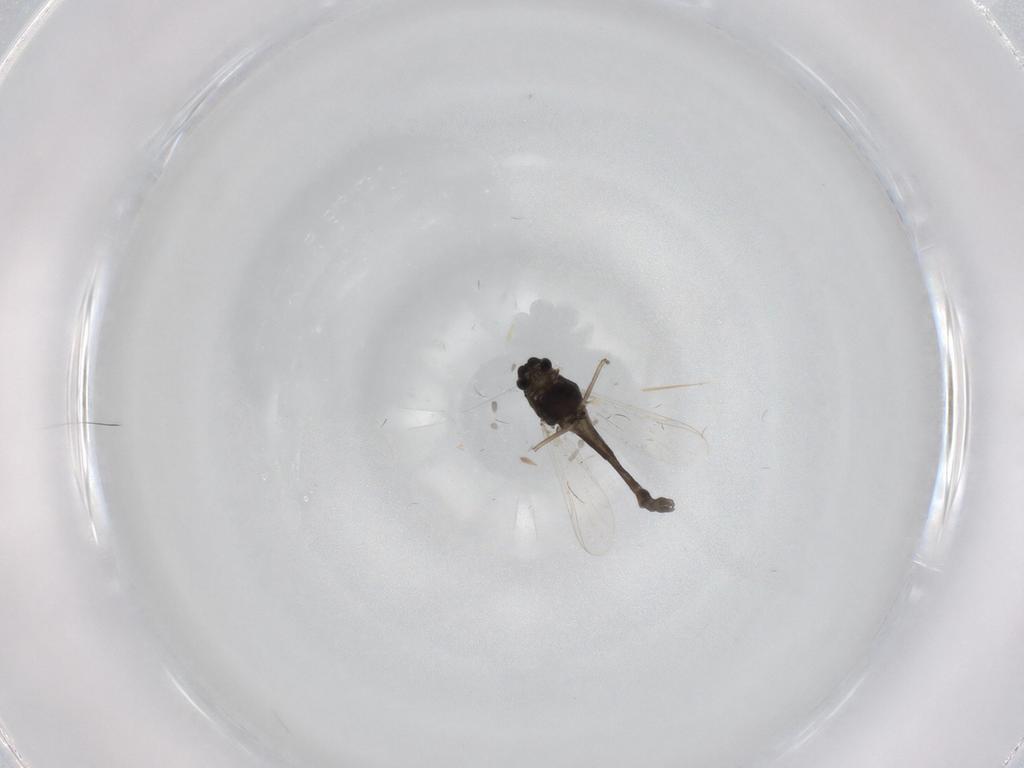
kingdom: Animalia
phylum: Arthropoda
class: Insecta
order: Diptera
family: Chironomidae
